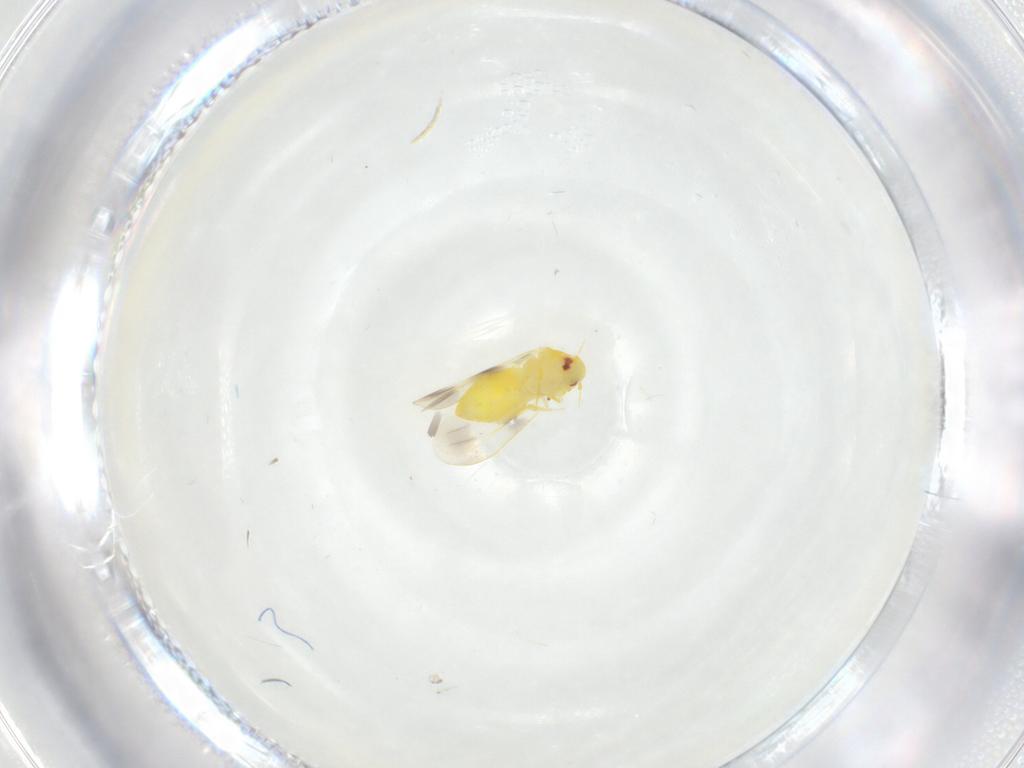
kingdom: Animalia
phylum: Arthropoda
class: Insecta
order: Hemiptera
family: Aleyrodidae
